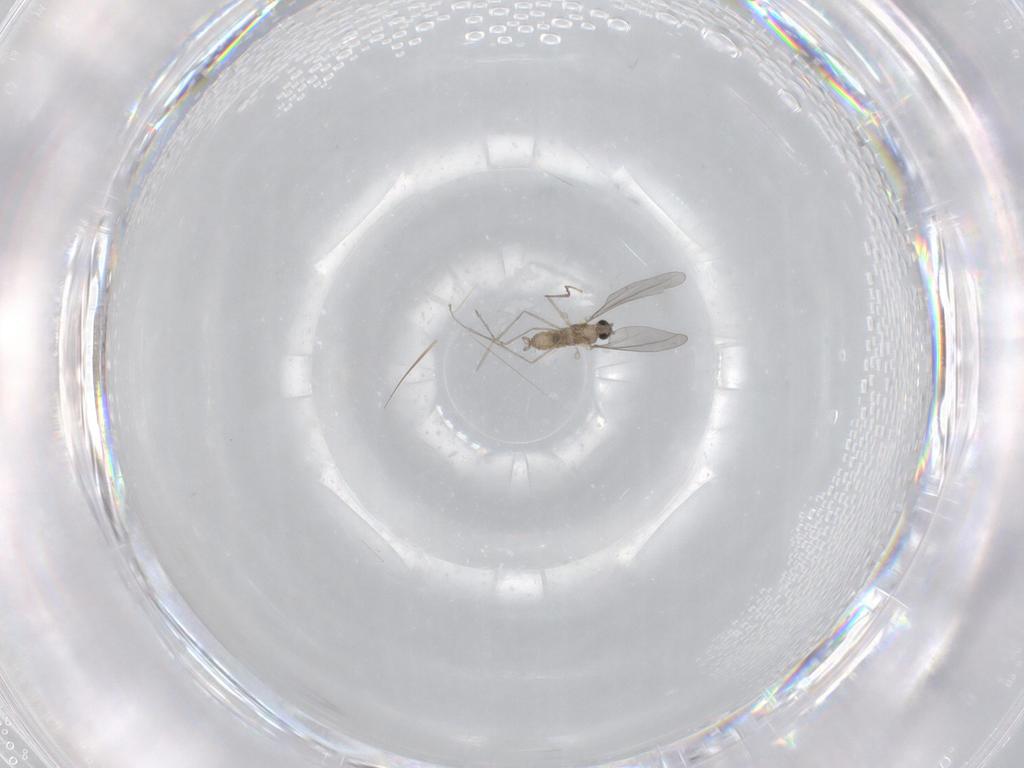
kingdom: Animalia
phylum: Arthropoda
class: Insecta
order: Diptera
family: Cecidomyiidae
